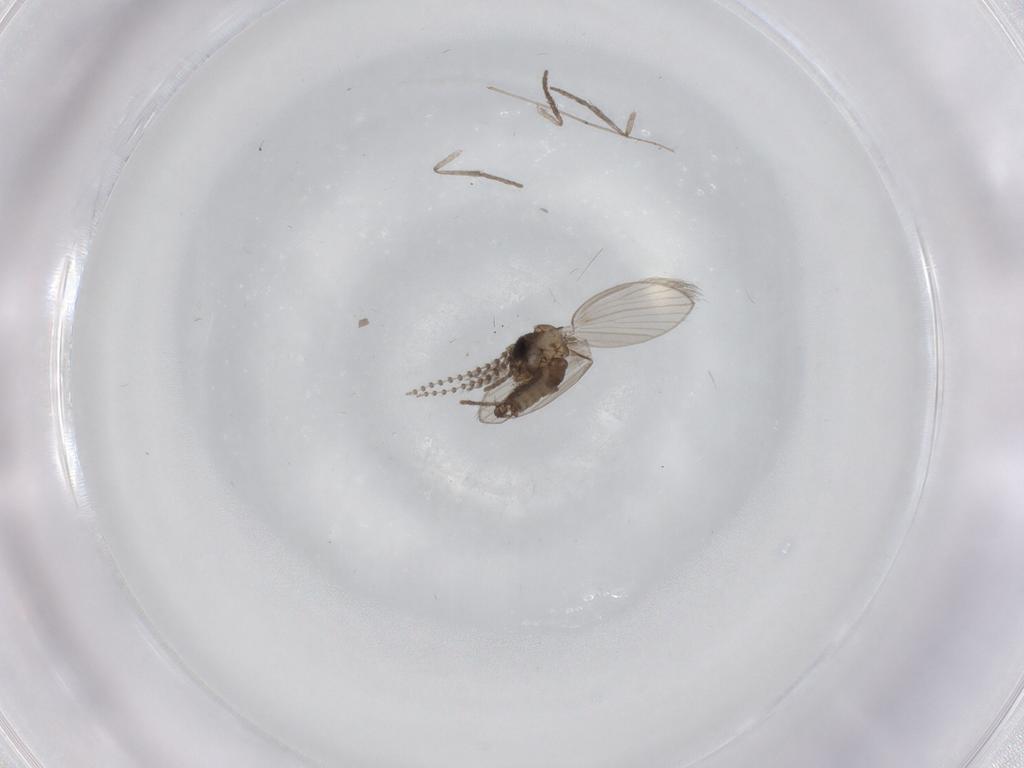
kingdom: Animalia
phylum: Arthropoda
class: Insecta
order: Diptera
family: Psychodidae
